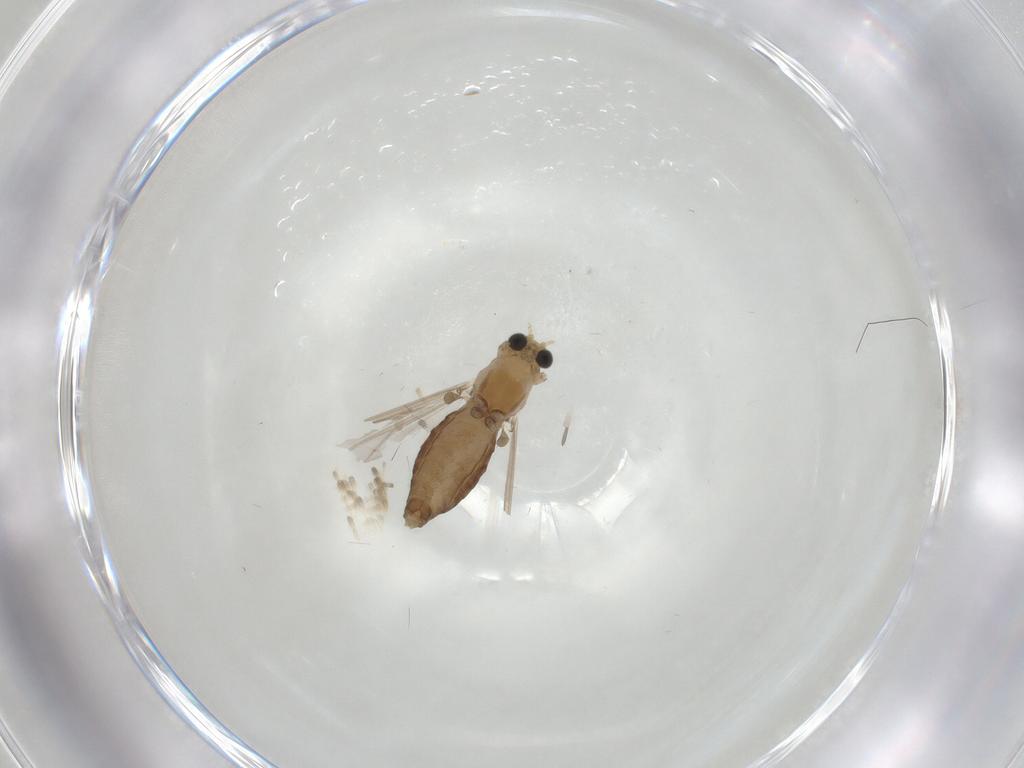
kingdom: Animalia
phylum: Arthropoda
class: Insecta
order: Diptera
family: Chironomidae
